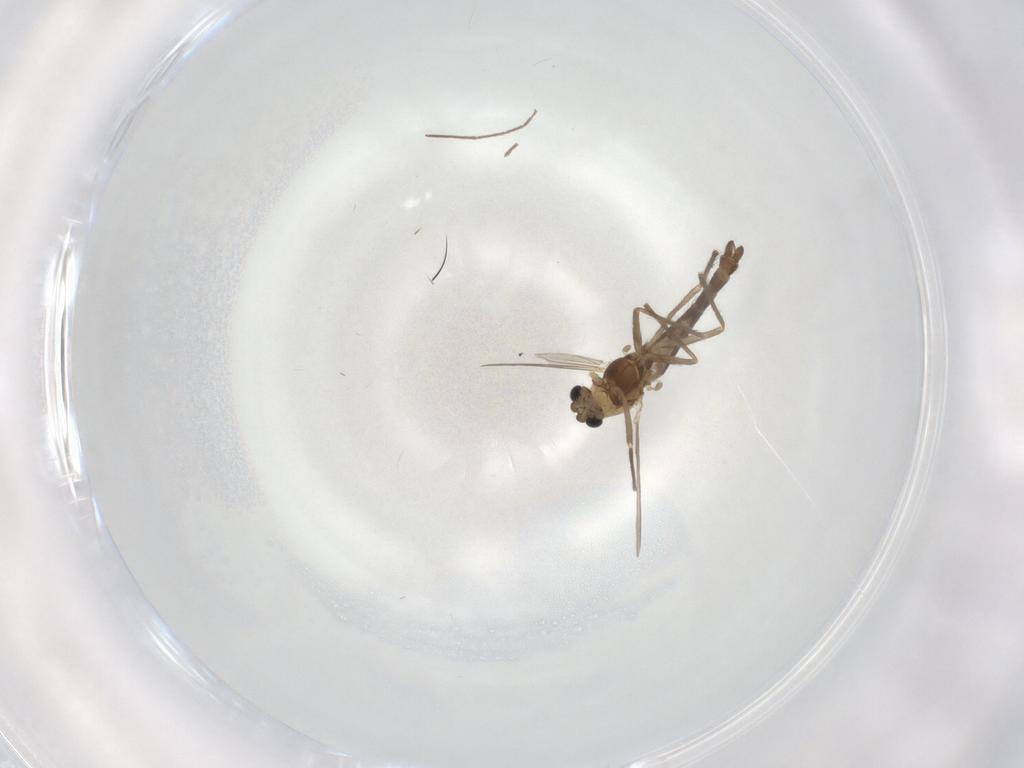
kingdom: Animalia
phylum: Arthropoda
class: Insecta
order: Diptera
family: Chironomidae
